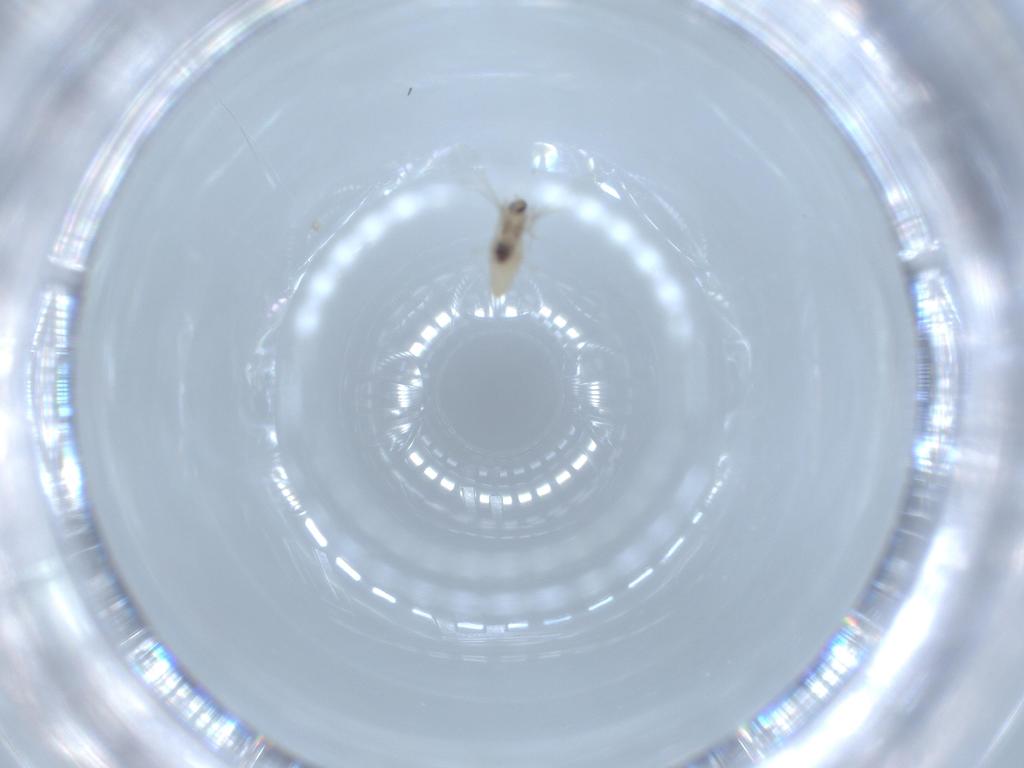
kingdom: Animalia
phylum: Arthropoda
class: Insecta
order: Diptera
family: Cecidomyiidae
